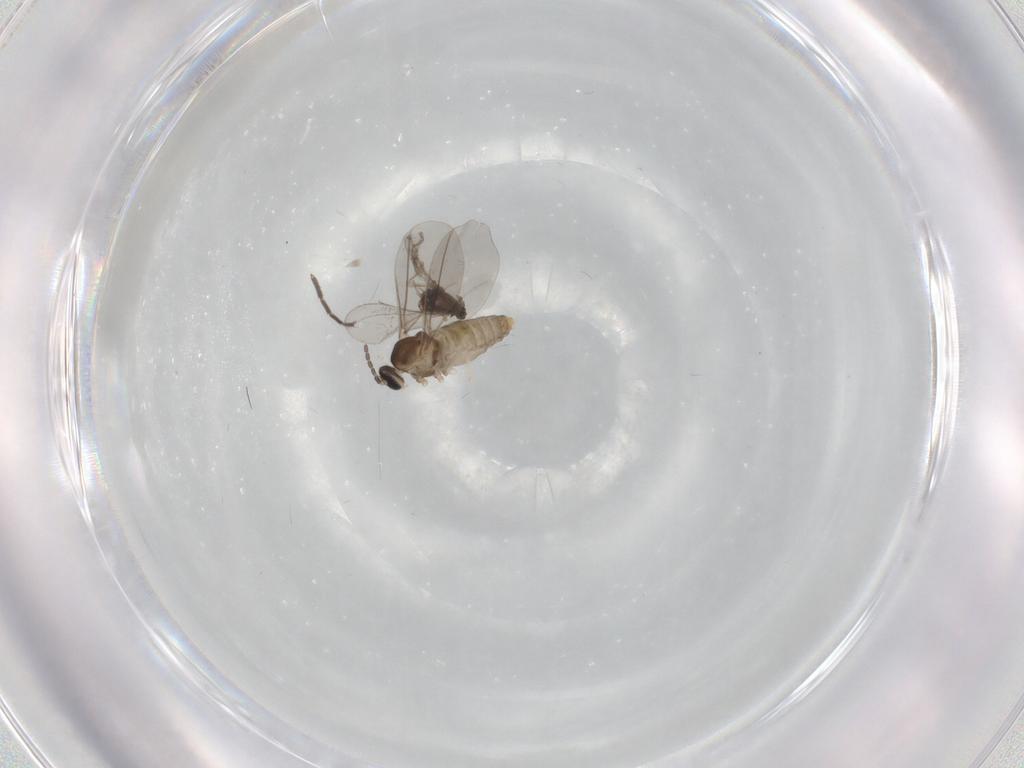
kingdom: Animalia
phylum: Arthropoda
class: Insecta
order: Diptera
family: Cecidomyiidae
